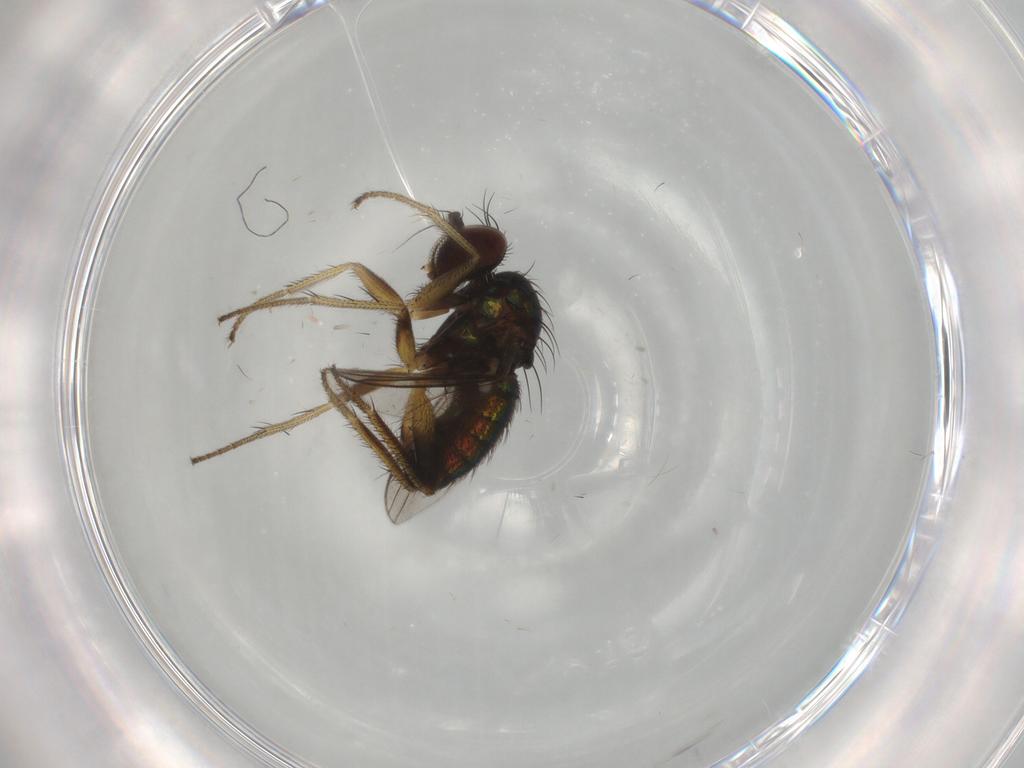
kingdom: Animalia
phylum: Arthropoda
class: Insecta
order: Diptera
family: Dolichopodidae
